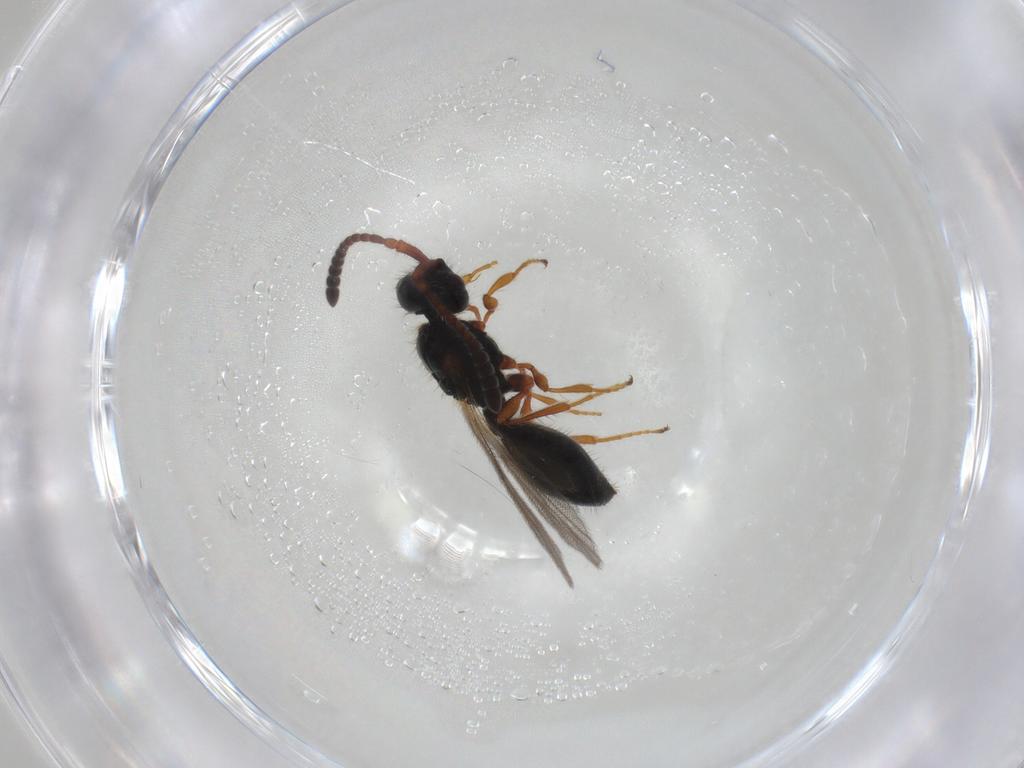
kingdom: Animalia
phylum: Arthropoda
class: Insecta
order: Hymenoptera
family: Diapriidae
